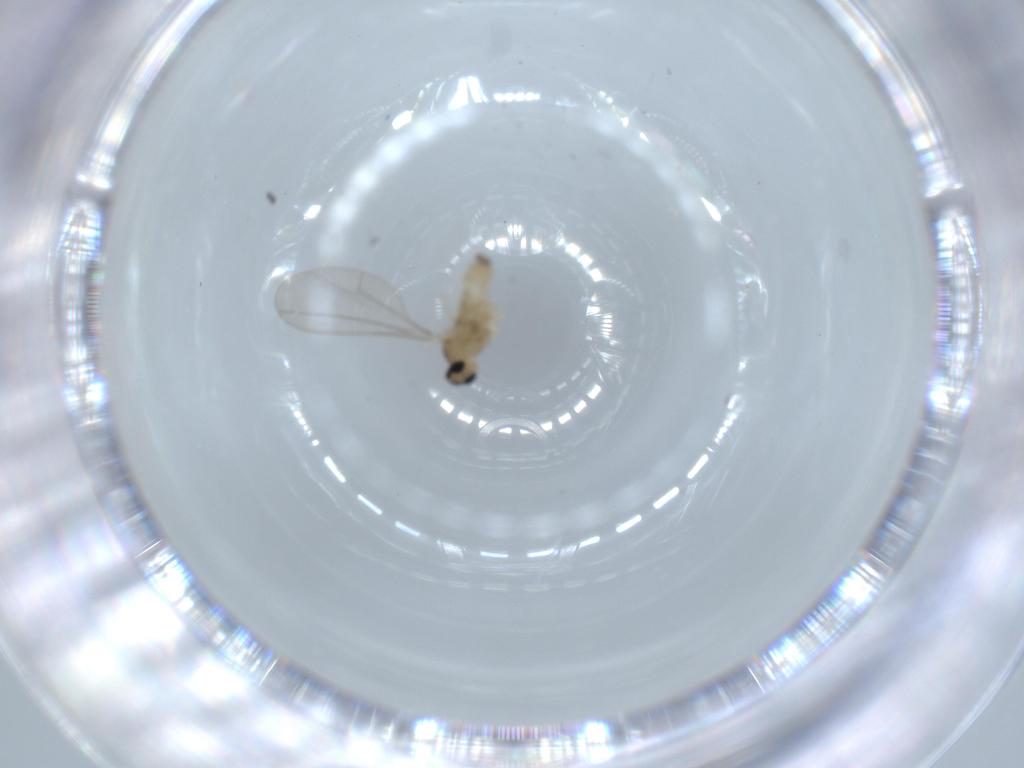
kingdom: Animalia
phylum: Arthropoda
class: Insecta
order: Diptera
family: Cecidomyiidae
